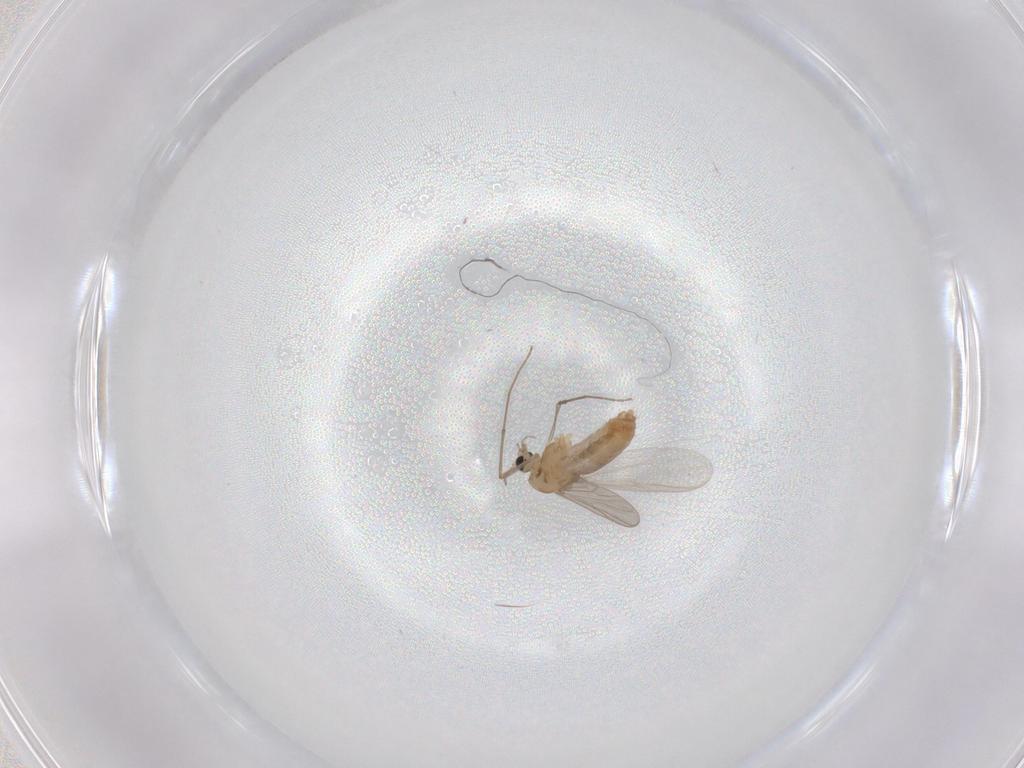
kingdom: Animalia
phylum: Arthropoda
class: Insecta
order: Diptera
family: Chironomidae
